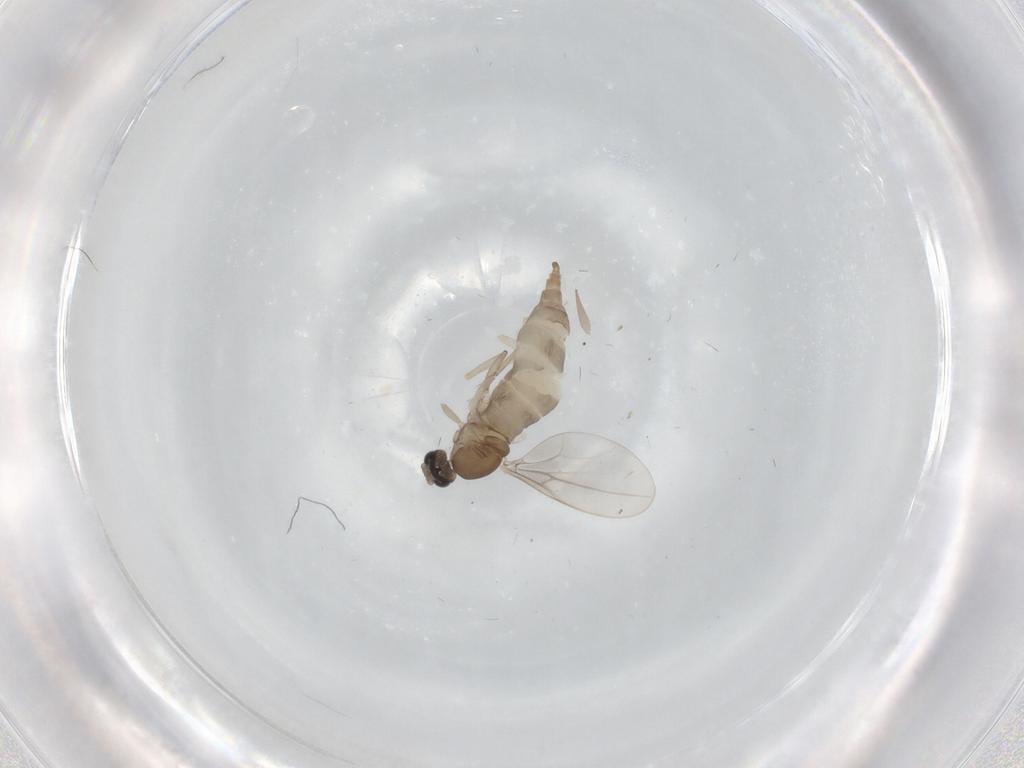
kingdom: Animalia
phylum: Arthropoda
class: Insecta
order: Diptera
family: Cecidomyiidae
